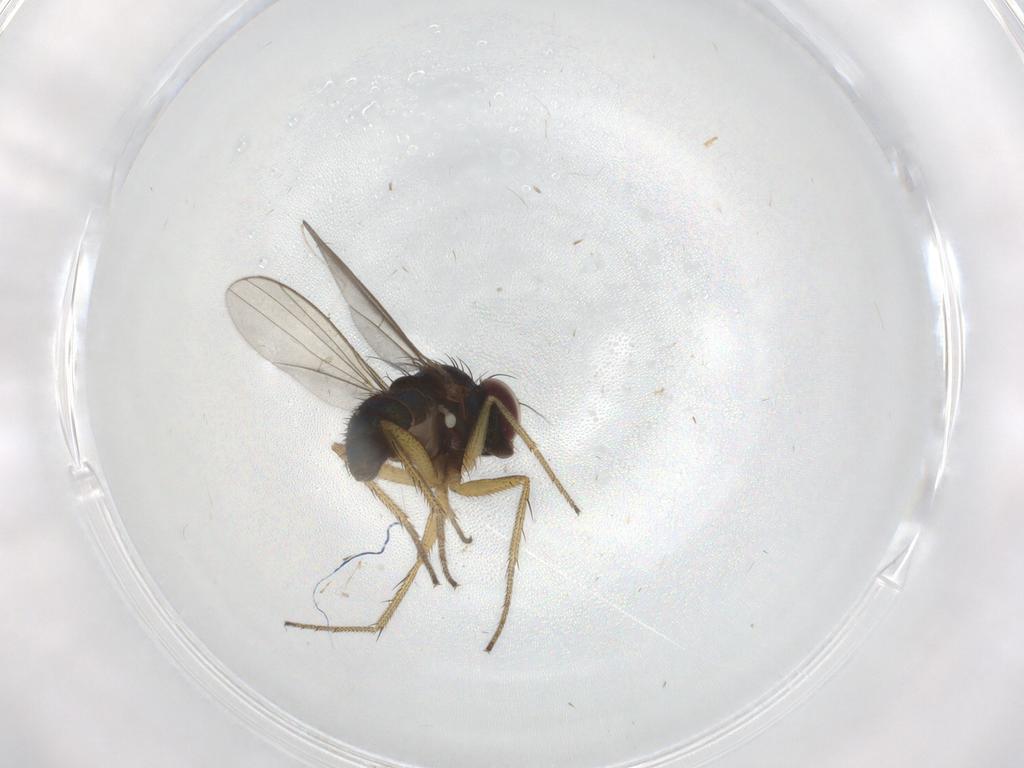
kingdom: Animalia
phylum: Arthropoda
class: Insecta
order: Diptera
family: Dolichopodidae
